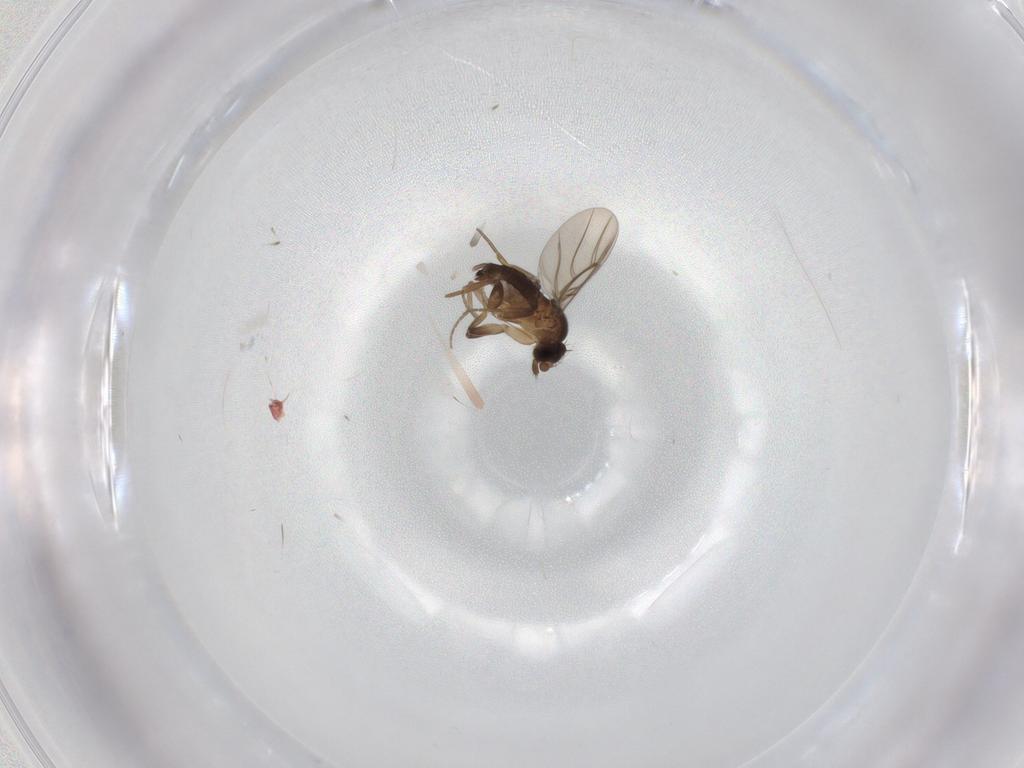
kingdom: Animalia
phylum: Arthropoda
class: Insecta
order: Diptera
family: Phoridae
